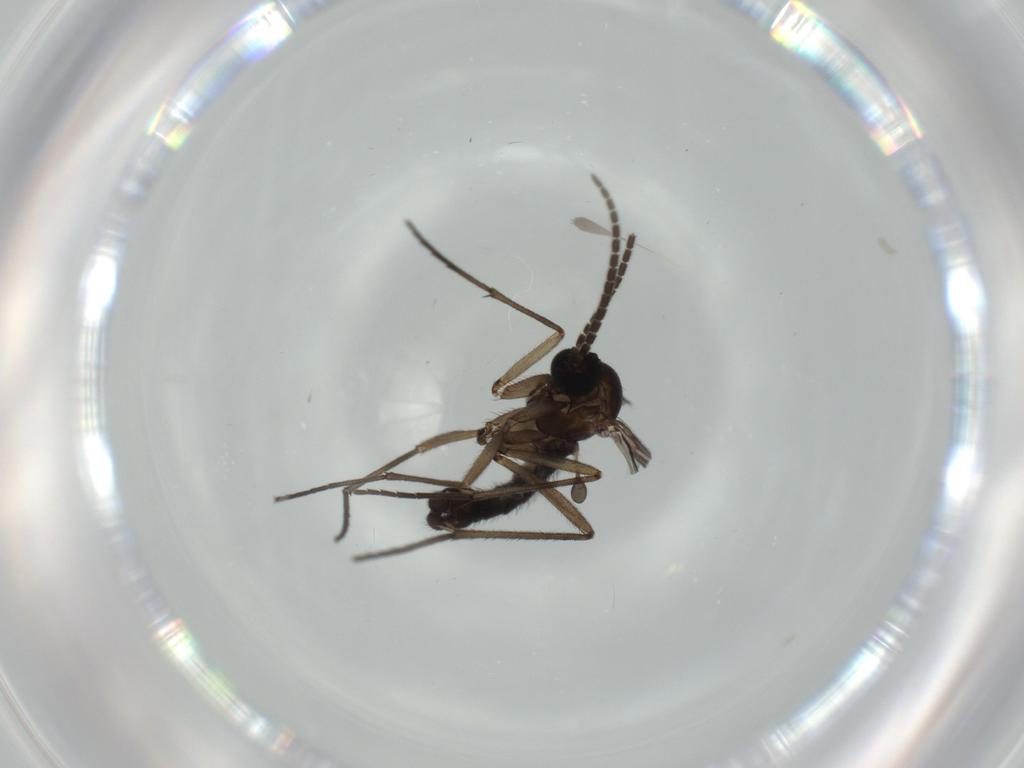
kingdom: Animalia
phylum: Arthropoda
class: Insecta
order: Diptera
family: Sciaridae
